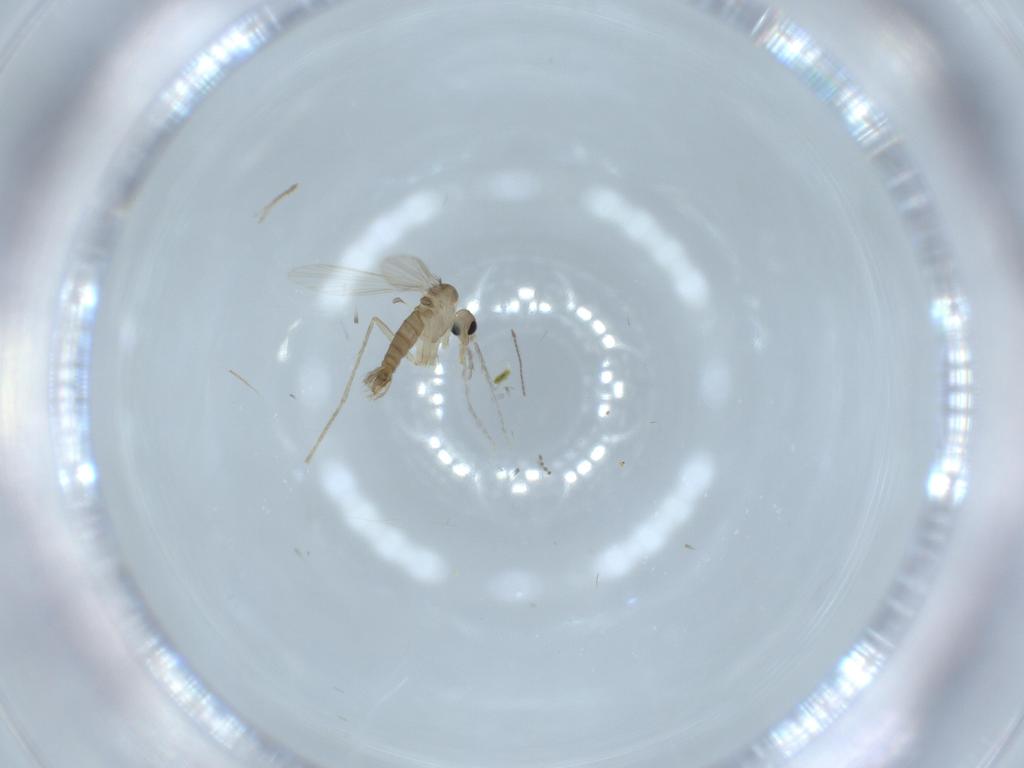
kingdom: Animalia
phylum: Arthropoda
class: Insecta
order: Diptera
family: Psychodidae
